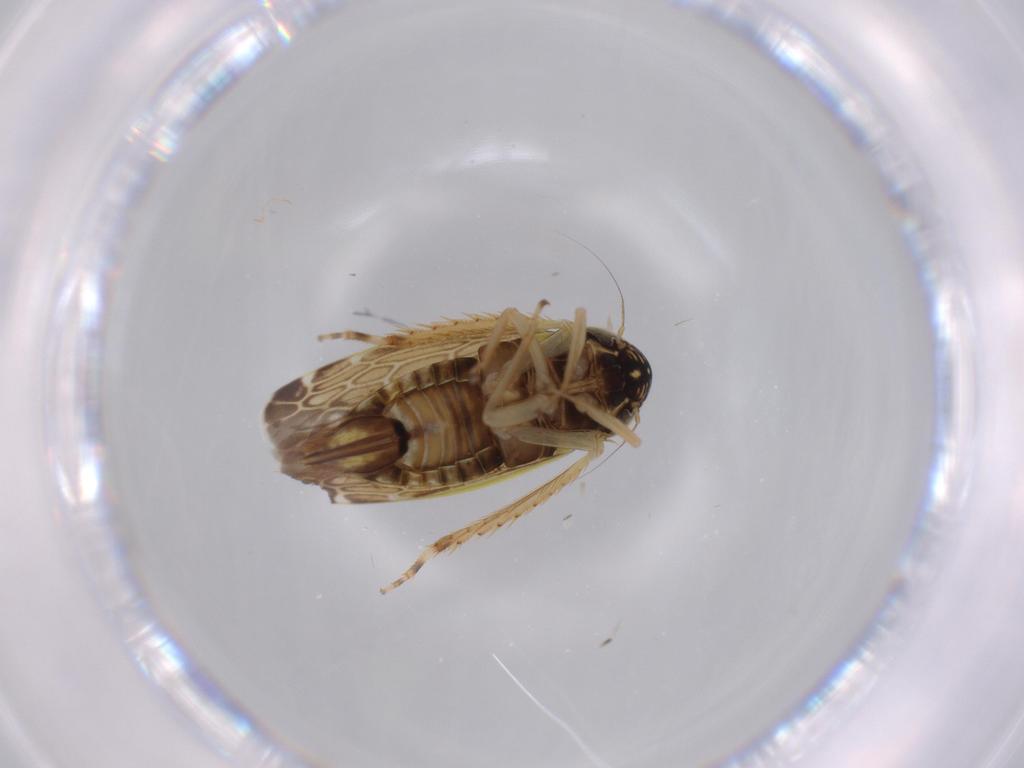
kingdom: Animalia
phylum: Arthropoda
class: Insecta
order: Hemiptera
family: Cicadellidae
